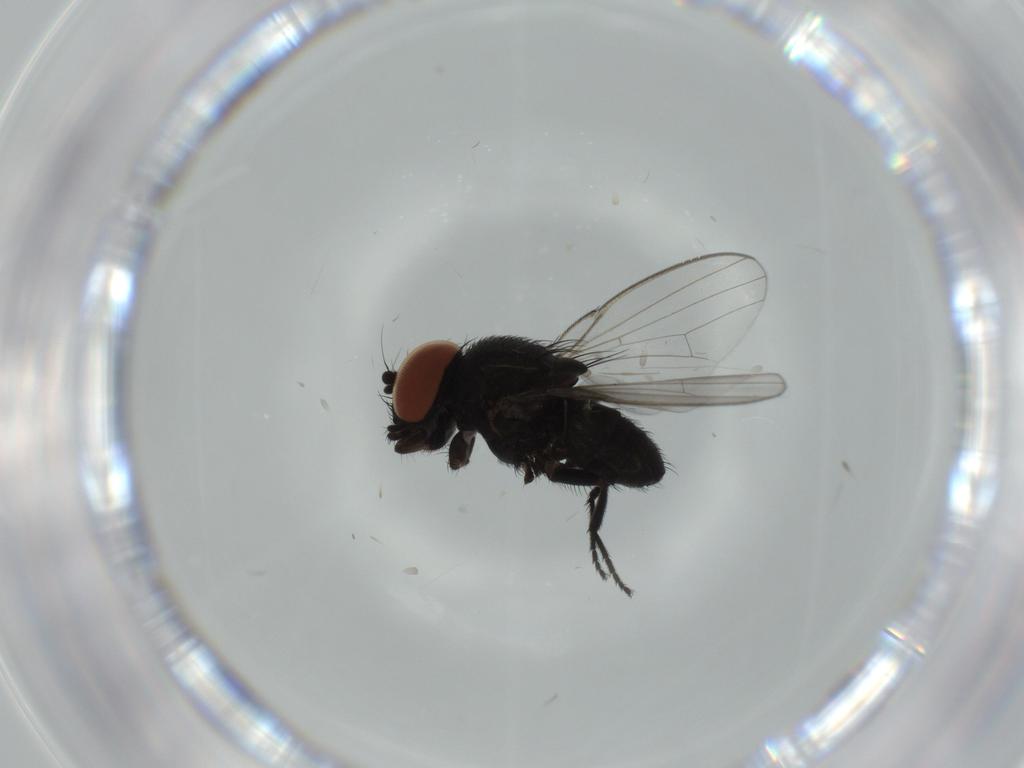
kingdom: Animalia
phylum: Arthropoda
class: Insecta
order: Diptera
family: Milichiidae
